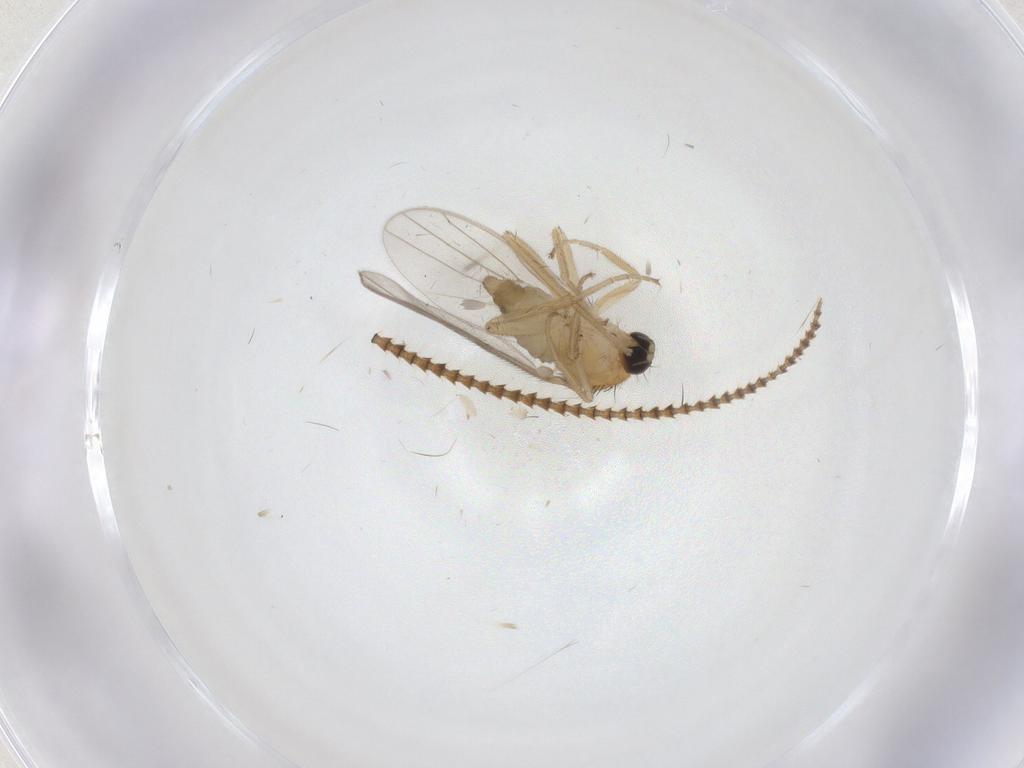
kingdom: Animalia
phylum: Arthropoda
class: Insecta
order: Diptera
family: Hybotidae
